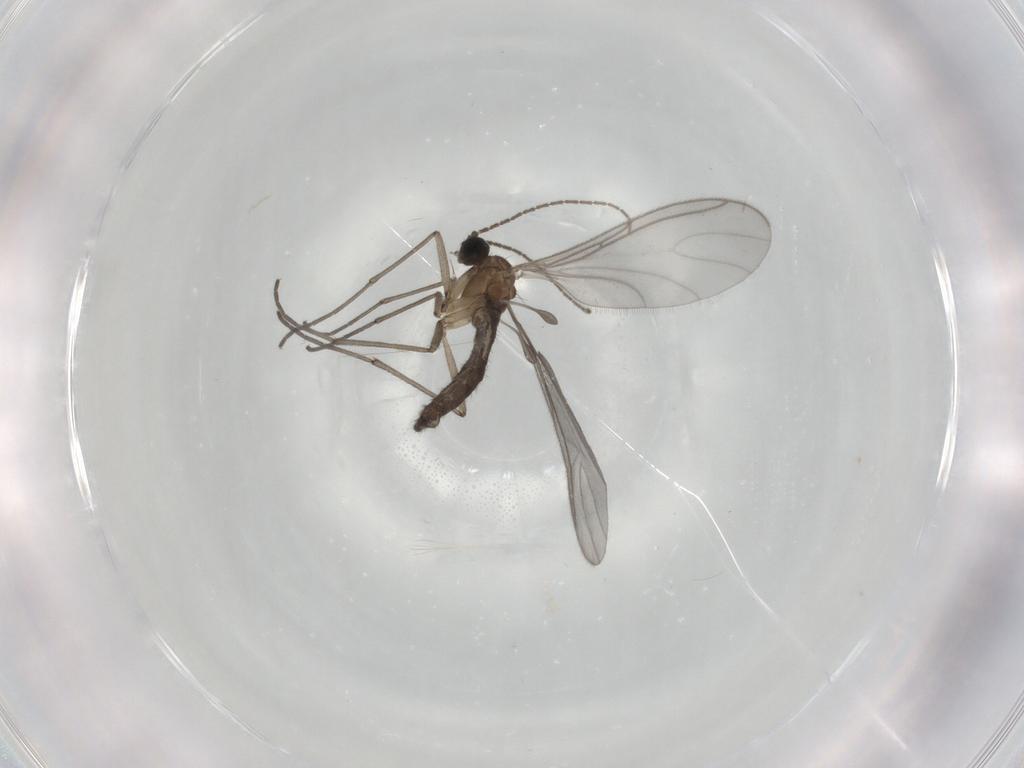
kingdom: Animalia
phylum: Arthropoda
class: Insecta
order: Diptera
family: Sciaridae
